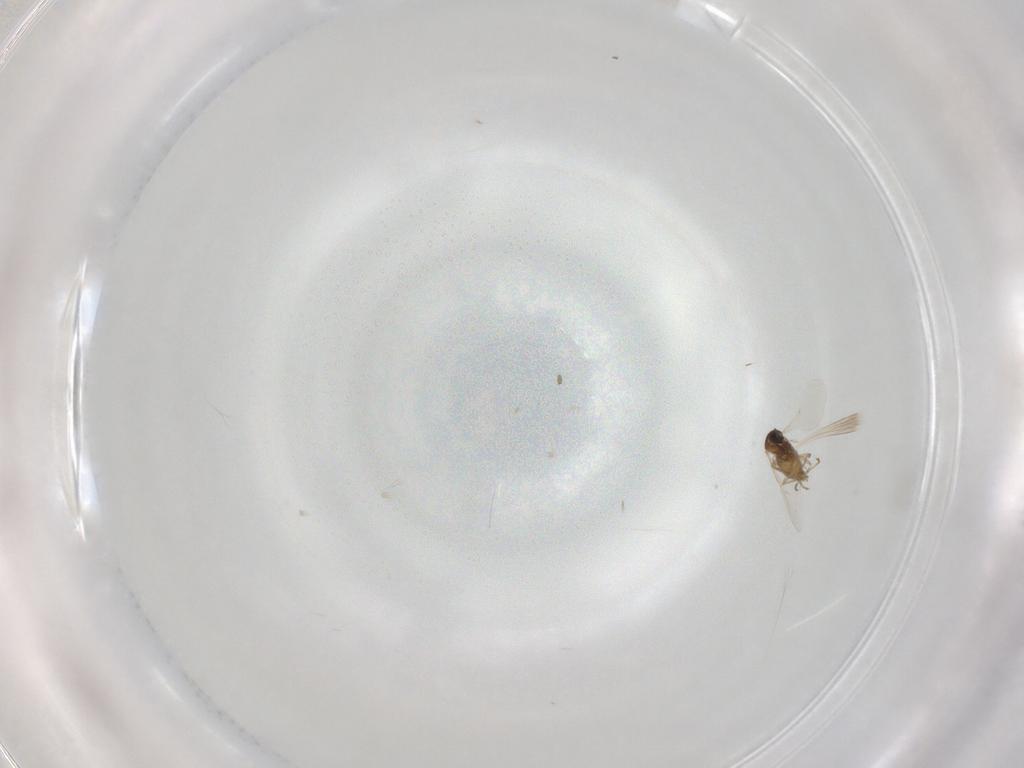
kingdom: Animalia
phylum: Arthropoda
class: Insecta
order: Diptera
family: Cecidomyiidae
